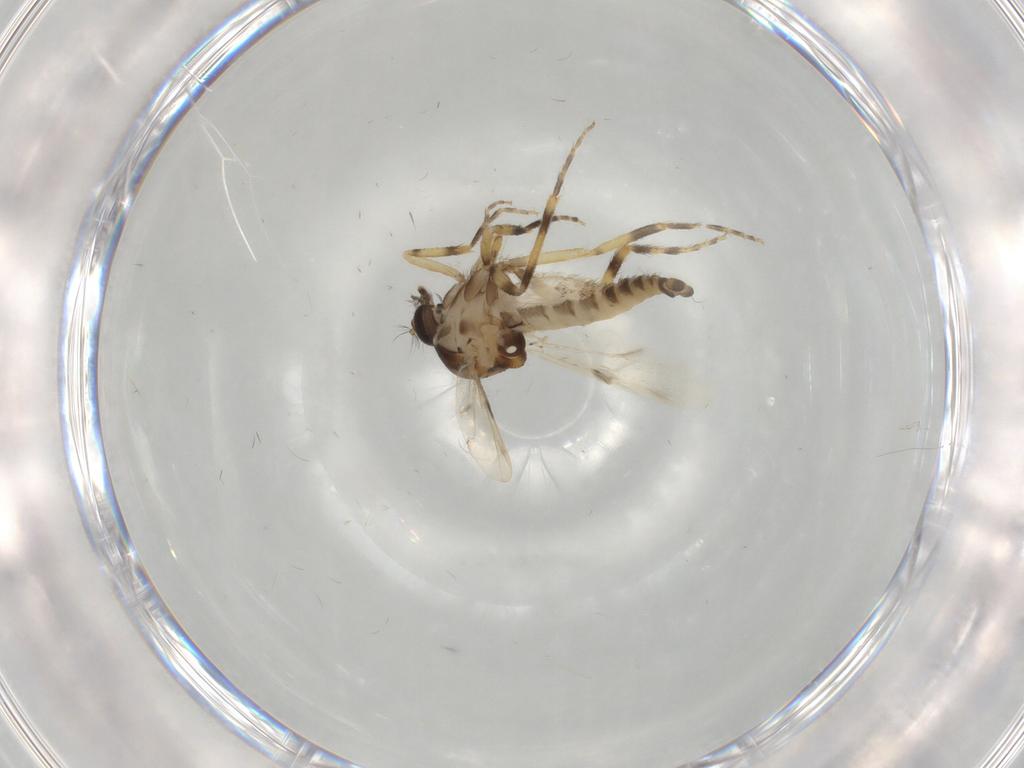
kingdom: Animalia
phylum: Arthropoda
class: Insecta
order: Diptera
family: Ceratopogonidae
